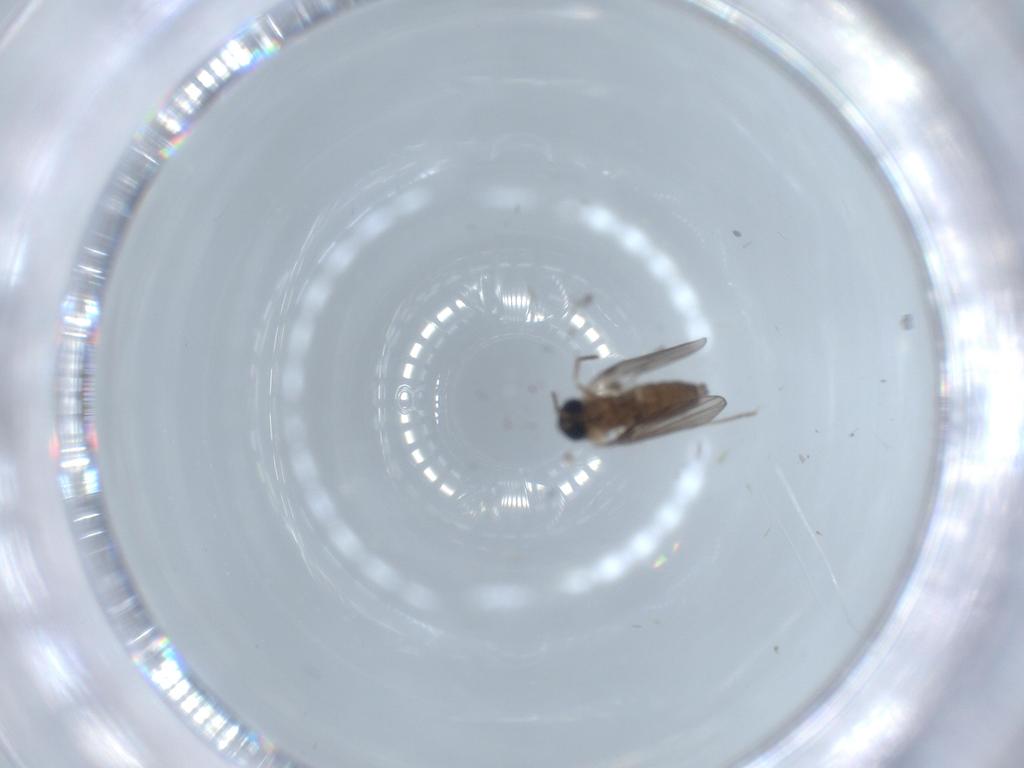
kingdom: Animalia
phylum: Arthropoda
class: Insecta
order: Diptera
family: Psychodidae
